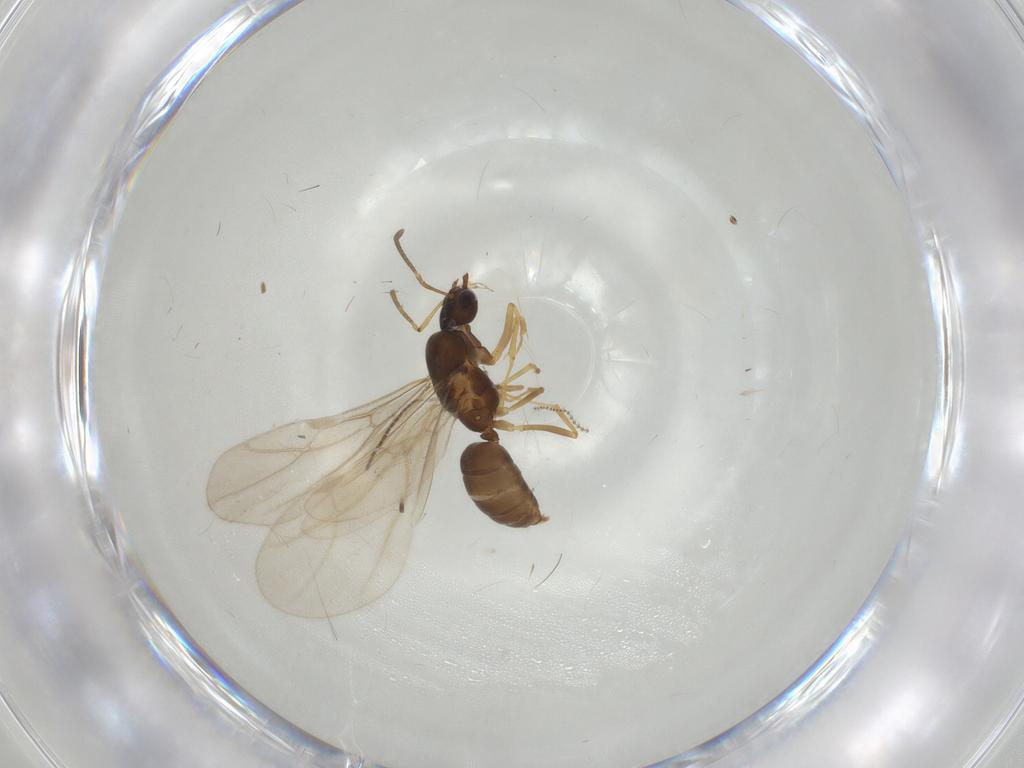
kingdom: Animalia
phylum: Arthropoda
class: Insecta
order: Hymenoptera
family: Formicidae
